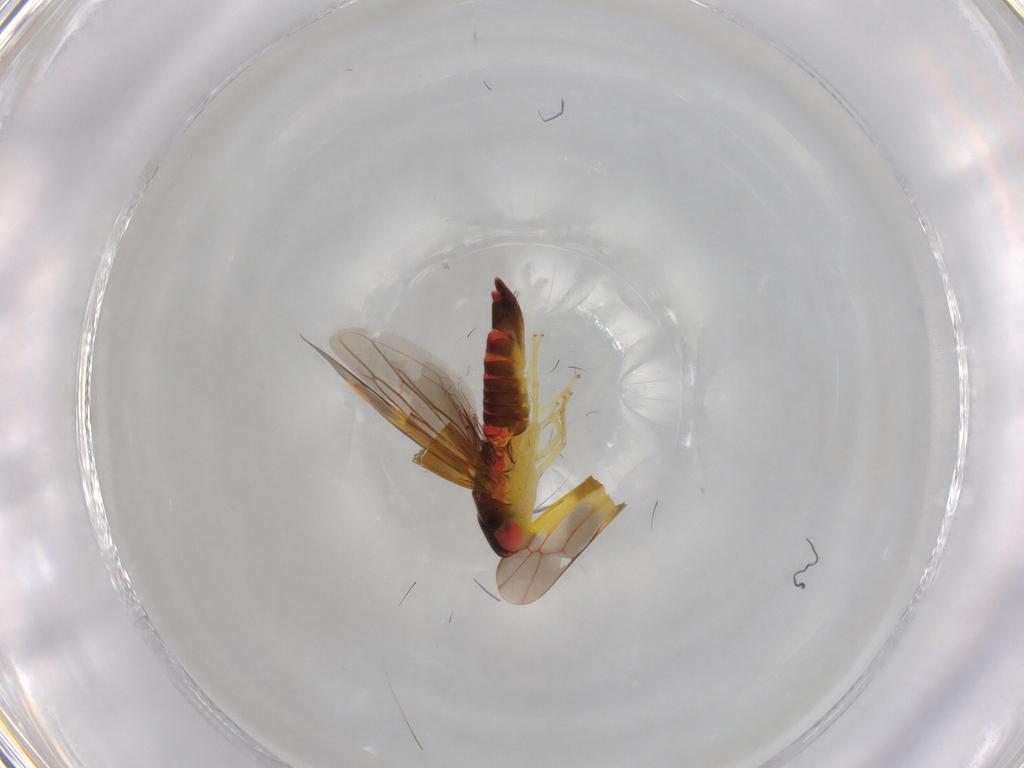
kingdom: Animalia
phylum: Arthropoda
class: Insecta
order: Hemiptera
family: Cicadellidae
